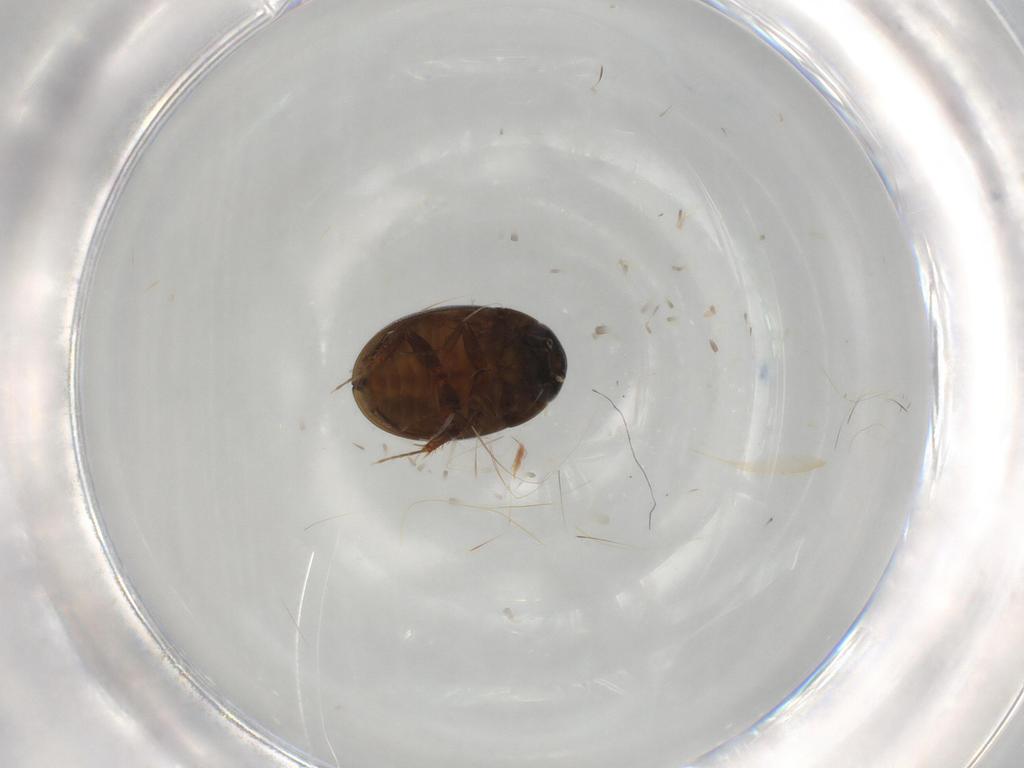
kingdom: Animalia
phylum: Arthropoda
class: Insecta
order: Coleoptera
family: Hydrophilidae
